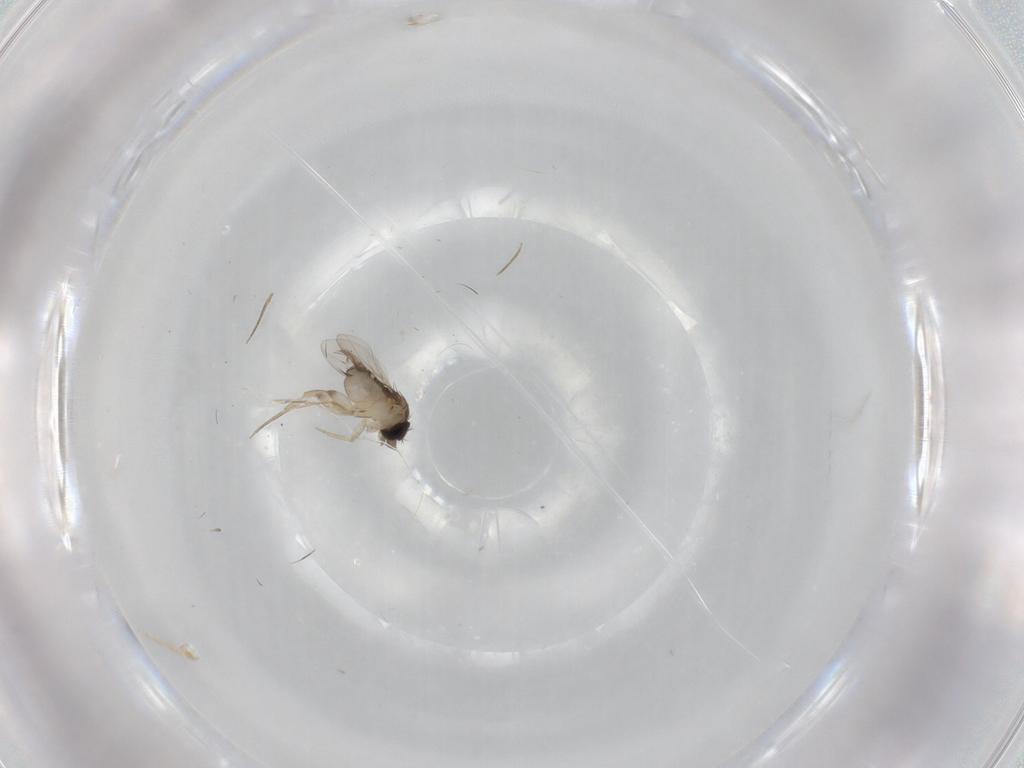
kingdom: Animalia
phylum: Arthropoda
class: Insecta
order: Diptera
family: Phoridae
